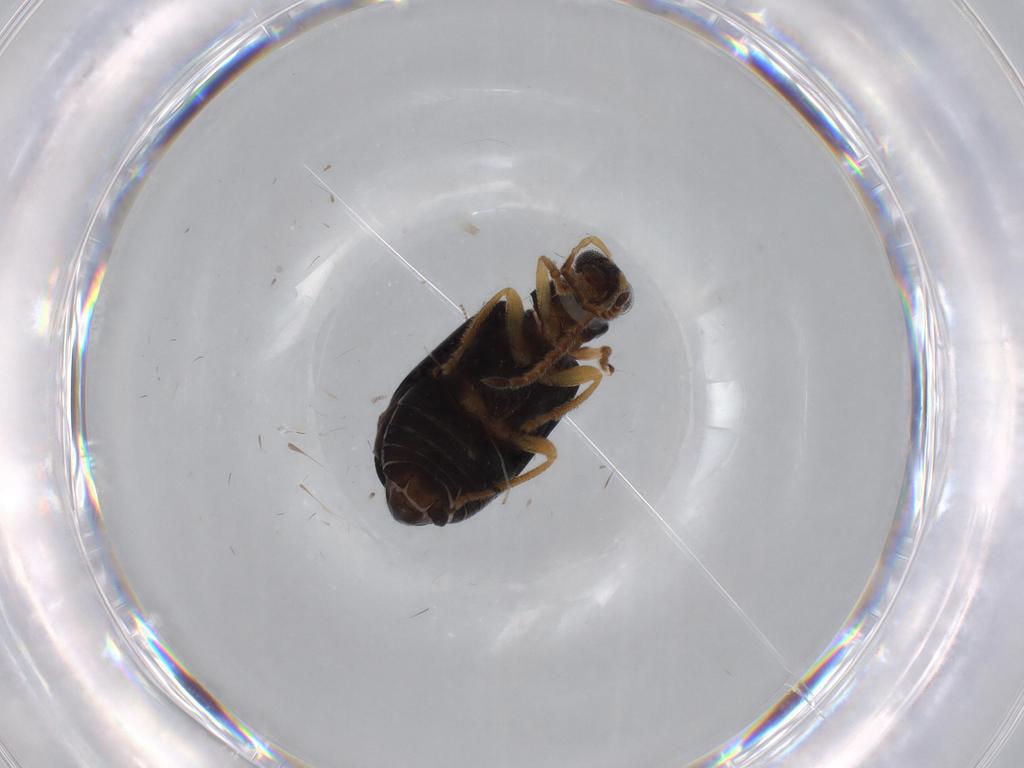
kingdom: Animalia
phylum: Arthropoda
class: Insecta
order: Coleoptera
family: Chrysomelidae
